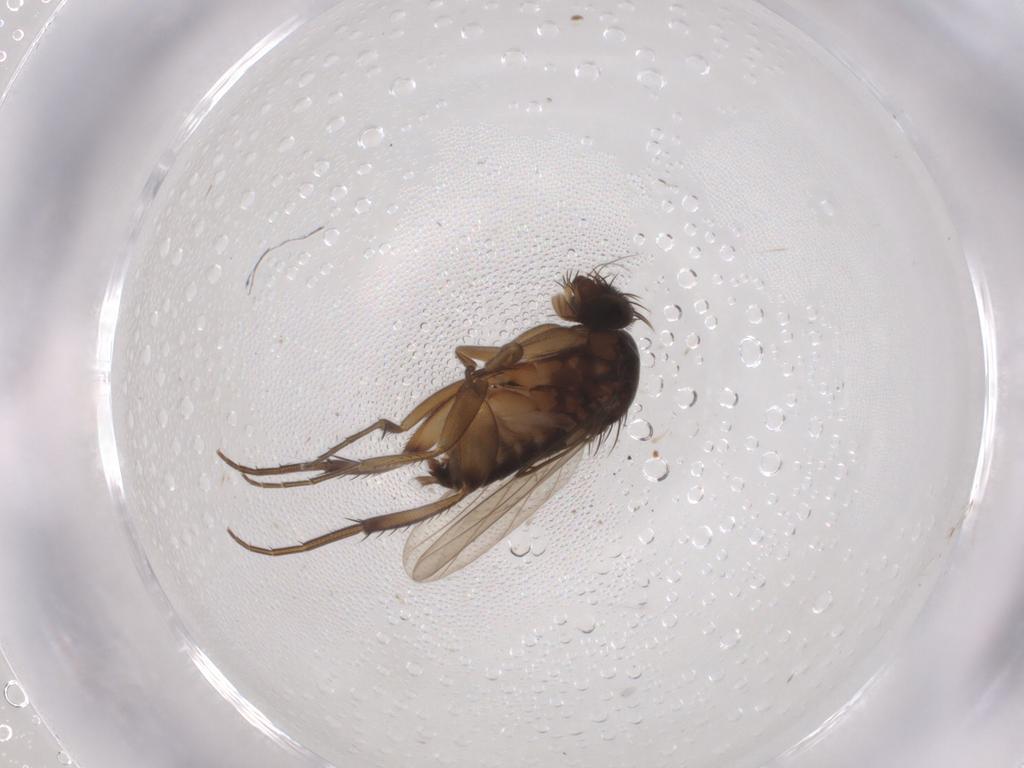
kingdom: Animalia
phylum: Arthropoda
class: Insecta
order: Diptera
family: Phoridae
